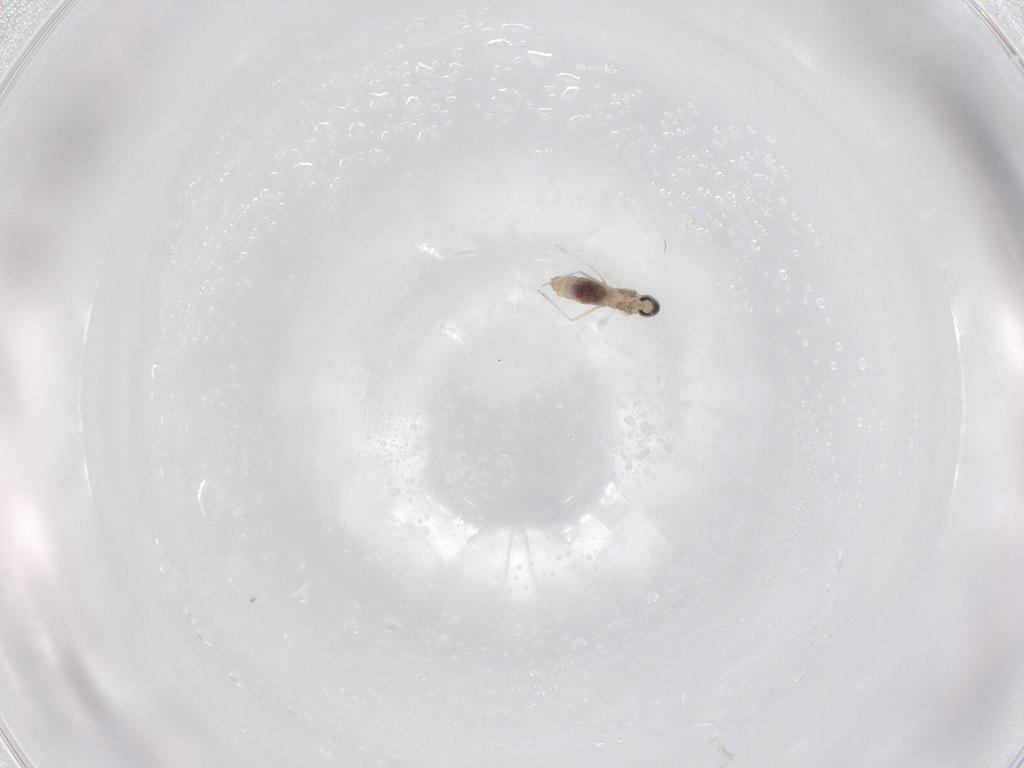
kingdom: Animalia
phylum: Arthropoda
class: Insecta
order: Diptera
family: Cecidomyiidae
